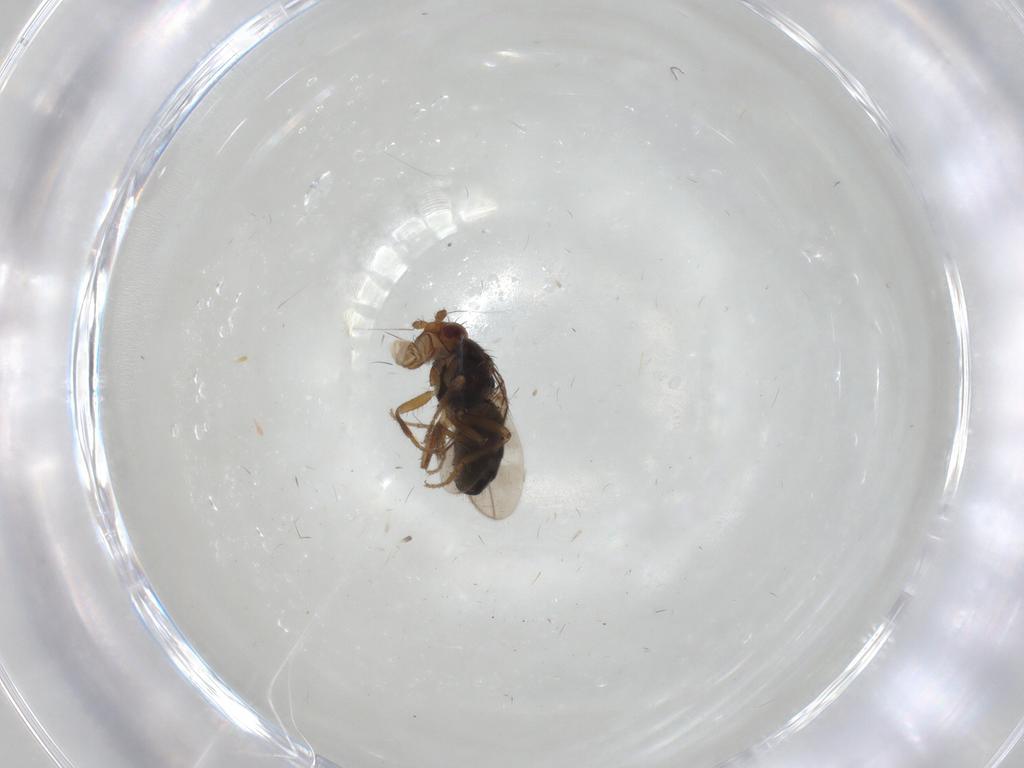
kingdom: Animalia
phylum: Arthropoda
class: Insecta
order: Diptera
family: Sphaeroceridae
